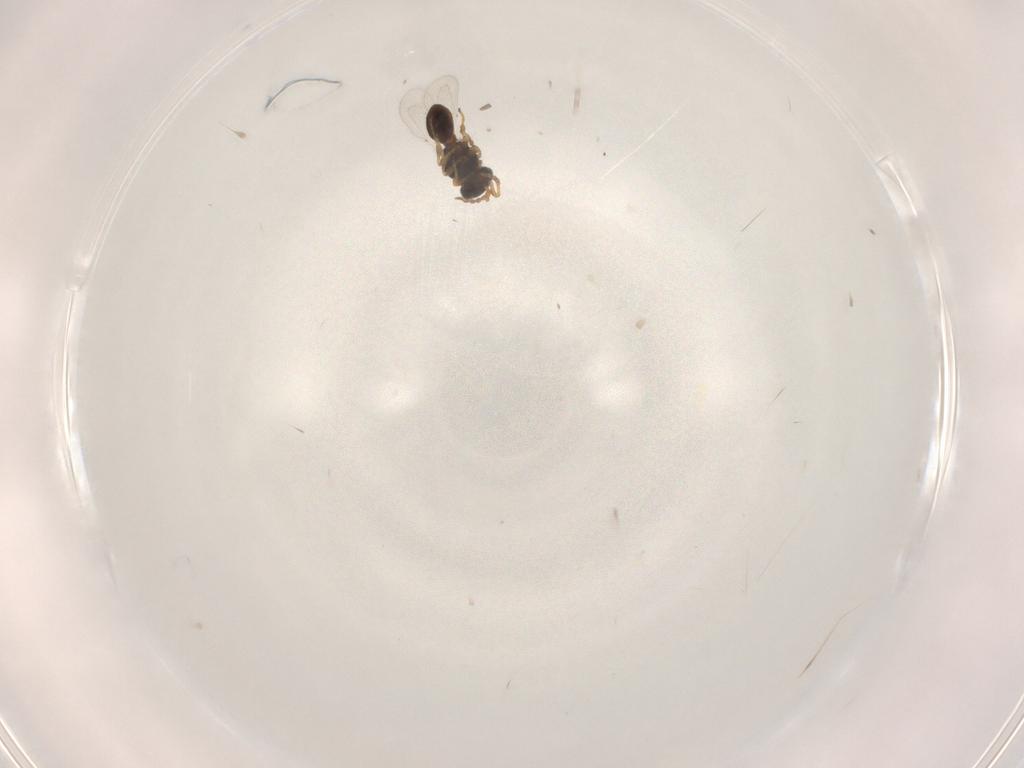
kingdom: Animalia
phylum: Arthropoda
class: Insecta
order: Hymenoptera
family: Platygastridae
